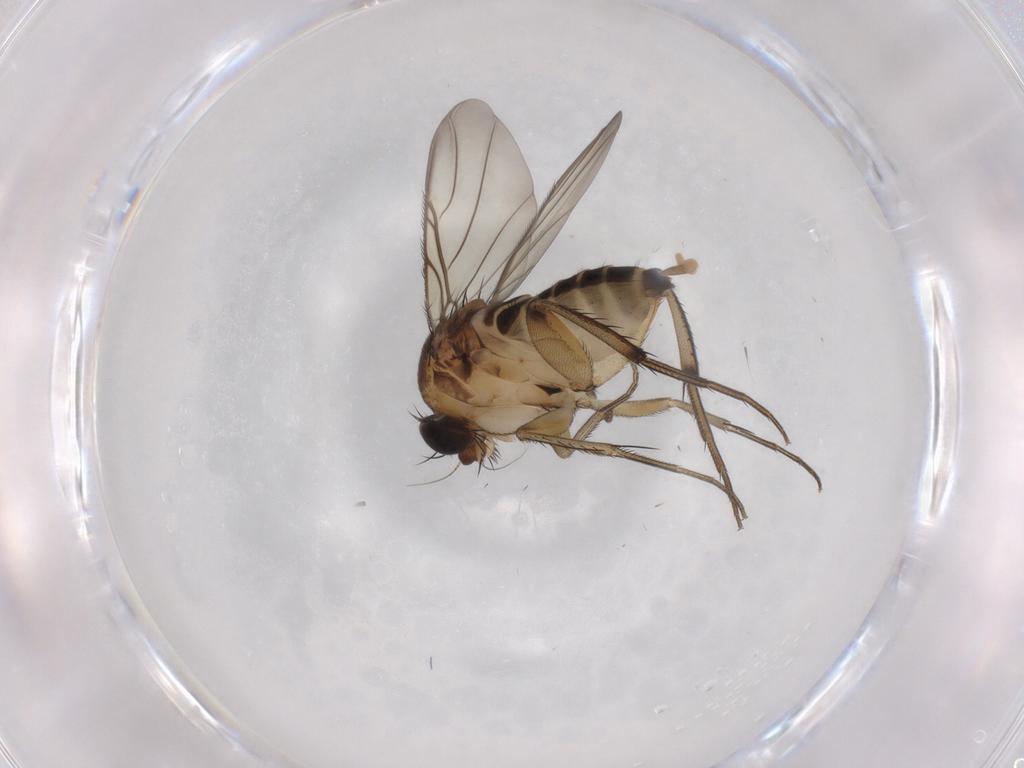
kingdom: Animalia
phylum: Arthropoda
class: Insecta
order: Diptera
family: Phoridae
